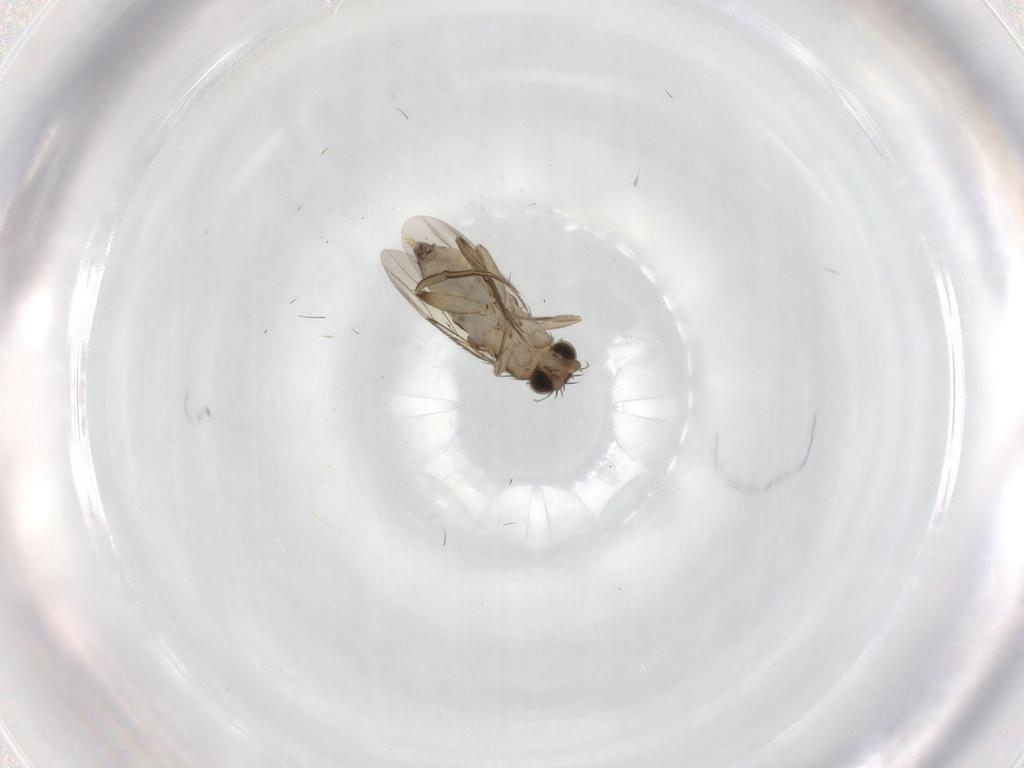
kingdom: Animalia
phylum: Arthropoda
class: Insecta
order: Diptera
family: Phoridae
